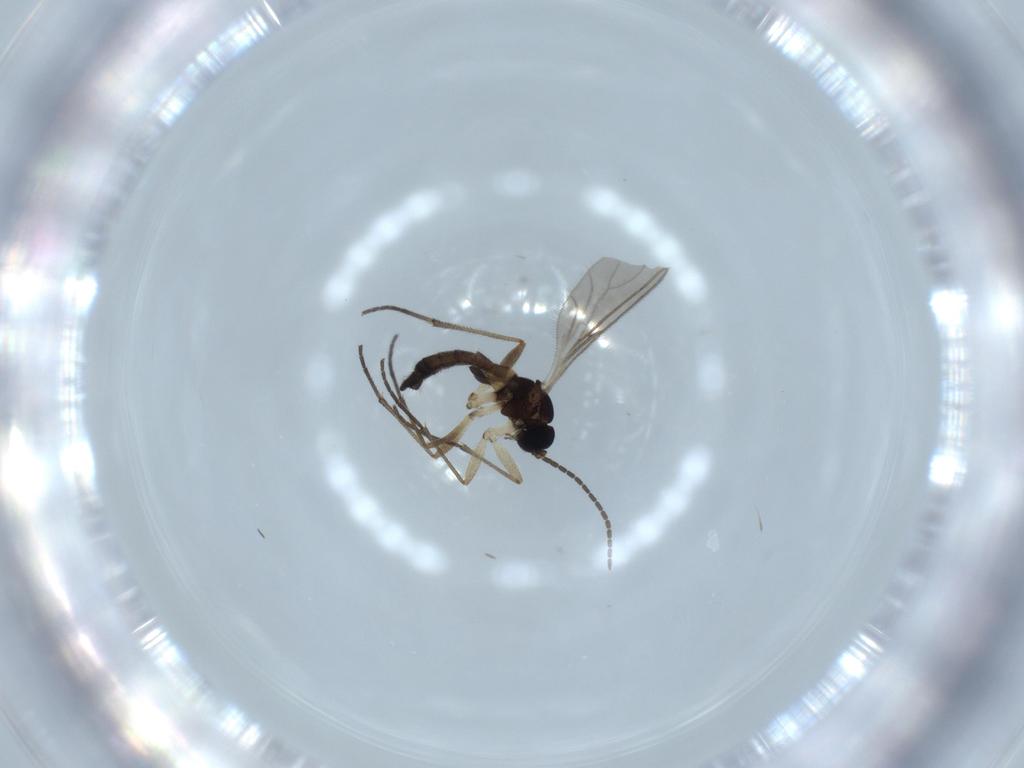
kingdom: Animalia
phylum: Arthropoda
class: Insecta
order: Diptera
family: Sciaridae
